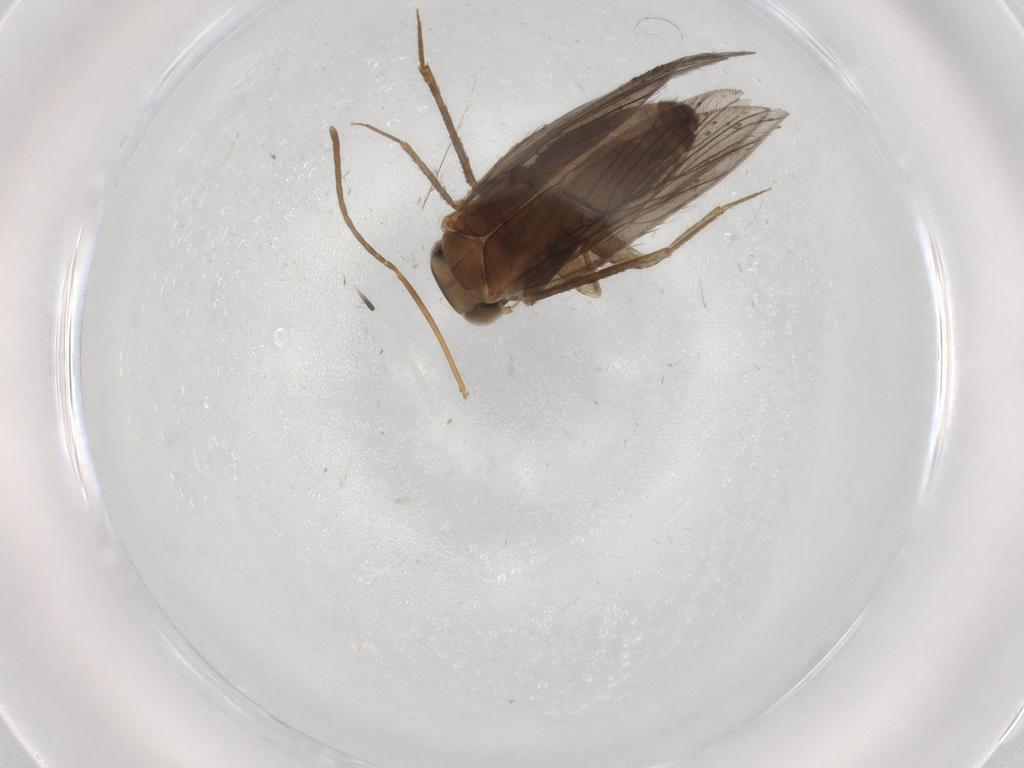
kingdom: Animalia
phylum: Arthropoda
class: Insecta
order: Psocodea
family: Lepidopsocidae
